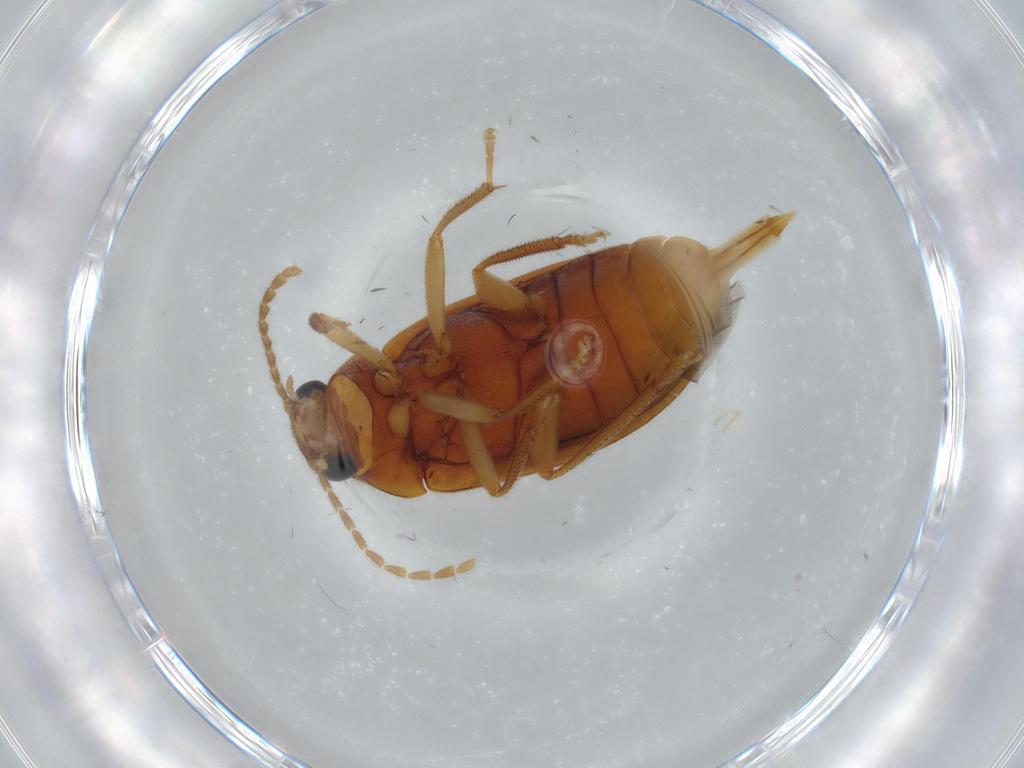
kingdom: Animalia
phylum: Arthropoda
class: Insecta
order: Coleoptera
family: Ptilodactylidae
